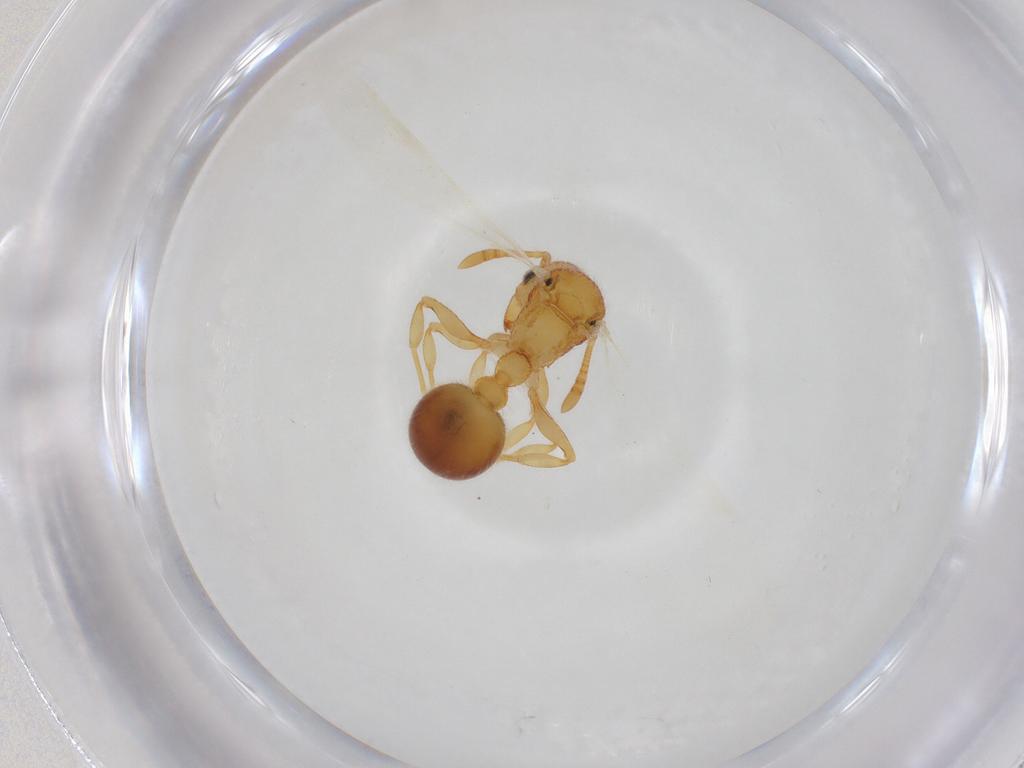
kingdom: Animalia
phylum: Arthropoda
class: Insecta
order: Hymenoptera
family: Formicidae
